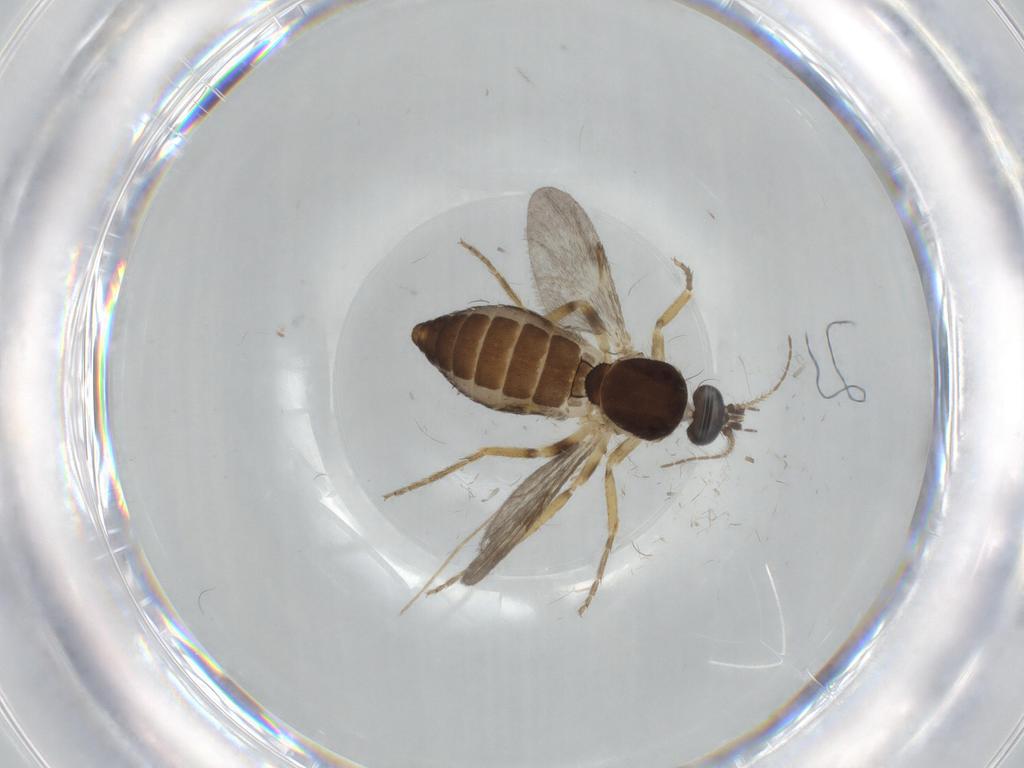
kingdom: Animalia
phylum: Arthropoda
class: Insecta
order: Diptera
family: Ceratopogonidae
